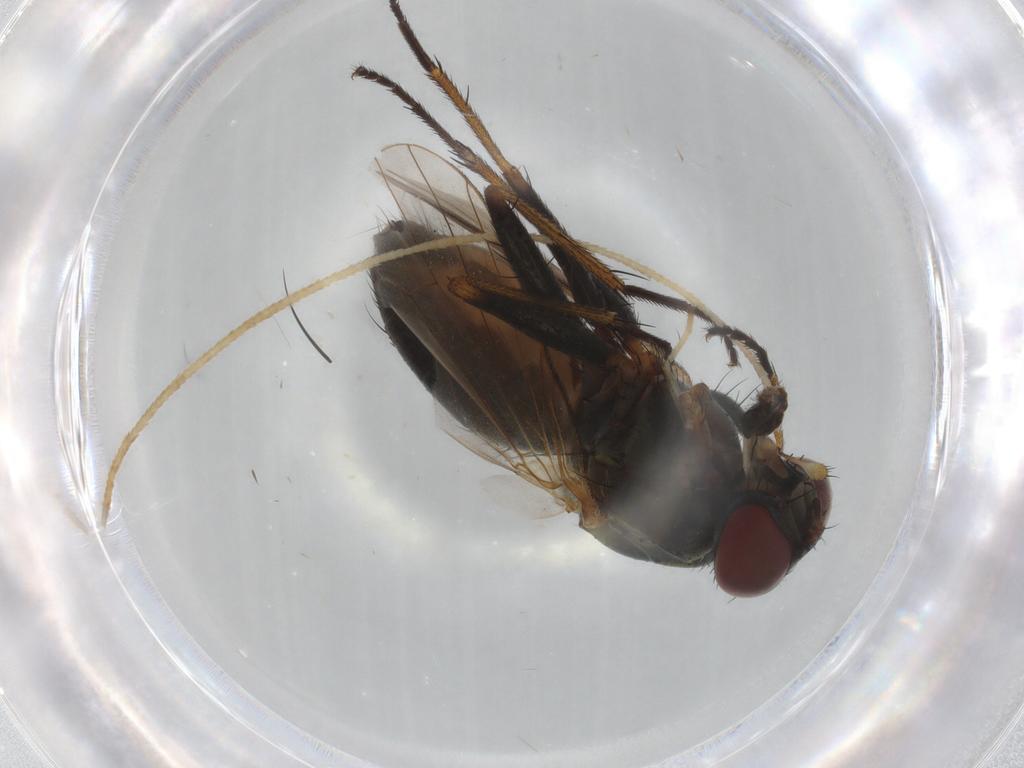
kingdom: Animalia
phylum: Arthropoda
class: Insecta
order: Diptera
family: Muscidae
